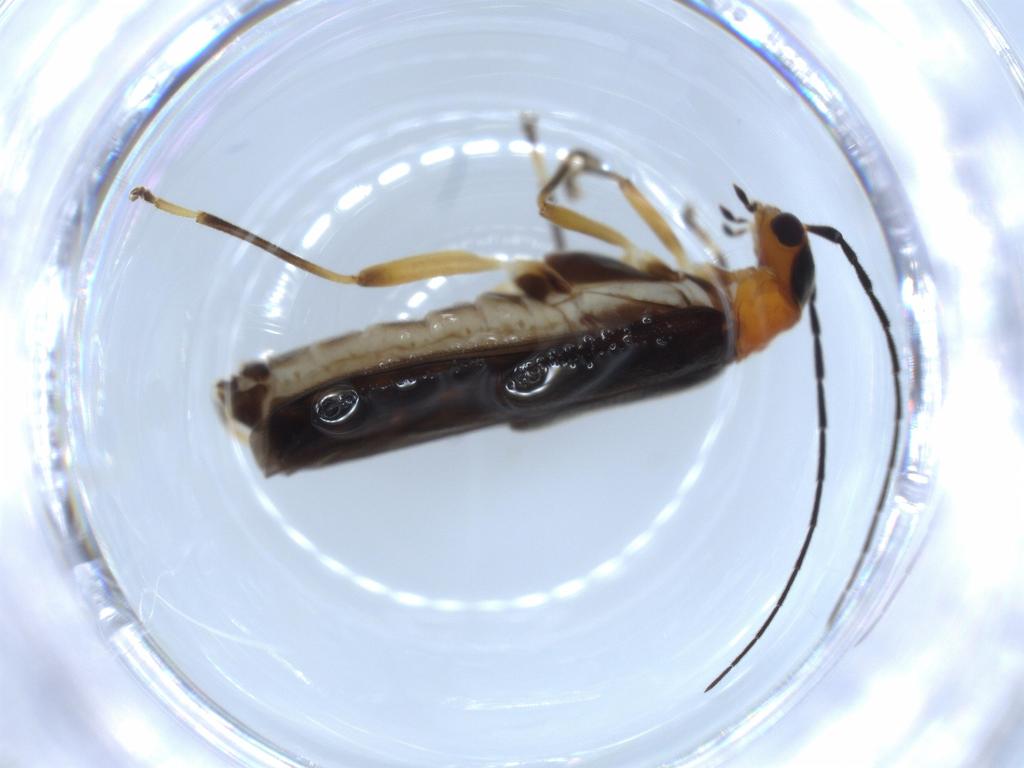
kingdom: Animalia
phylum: Arthropoda
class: Insecta
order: Coleoptera
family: Cantharidae
